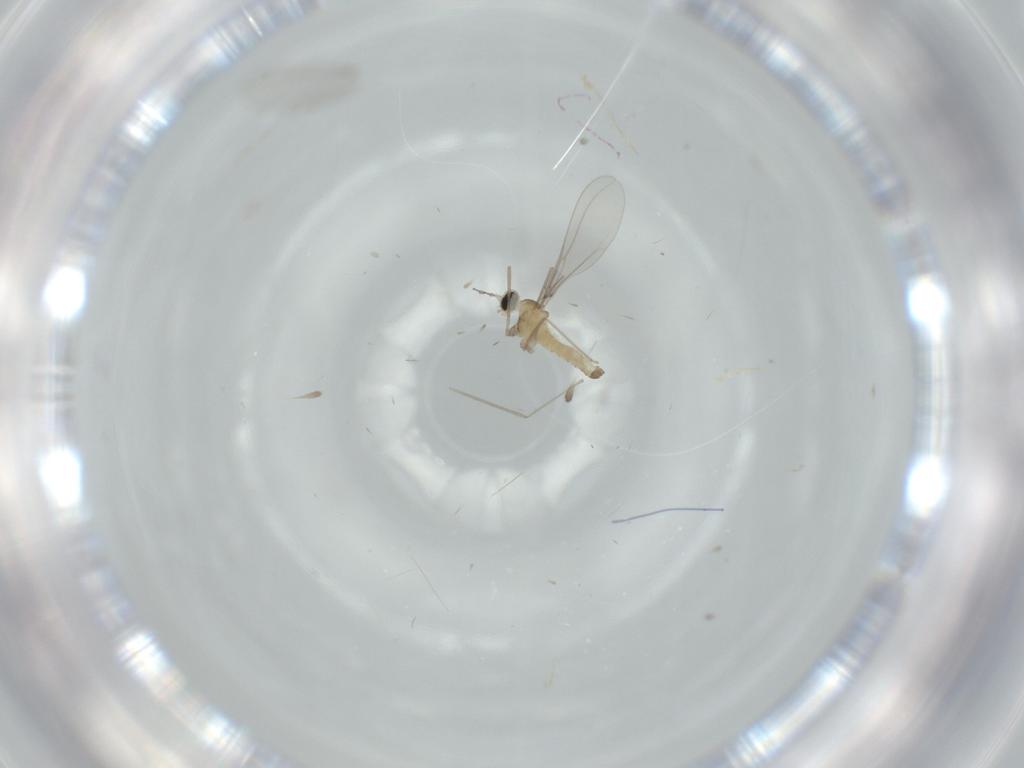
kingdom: Animalia
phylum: Arthropoda
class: Insecta
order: Diptera
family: Cecidomyiidae
